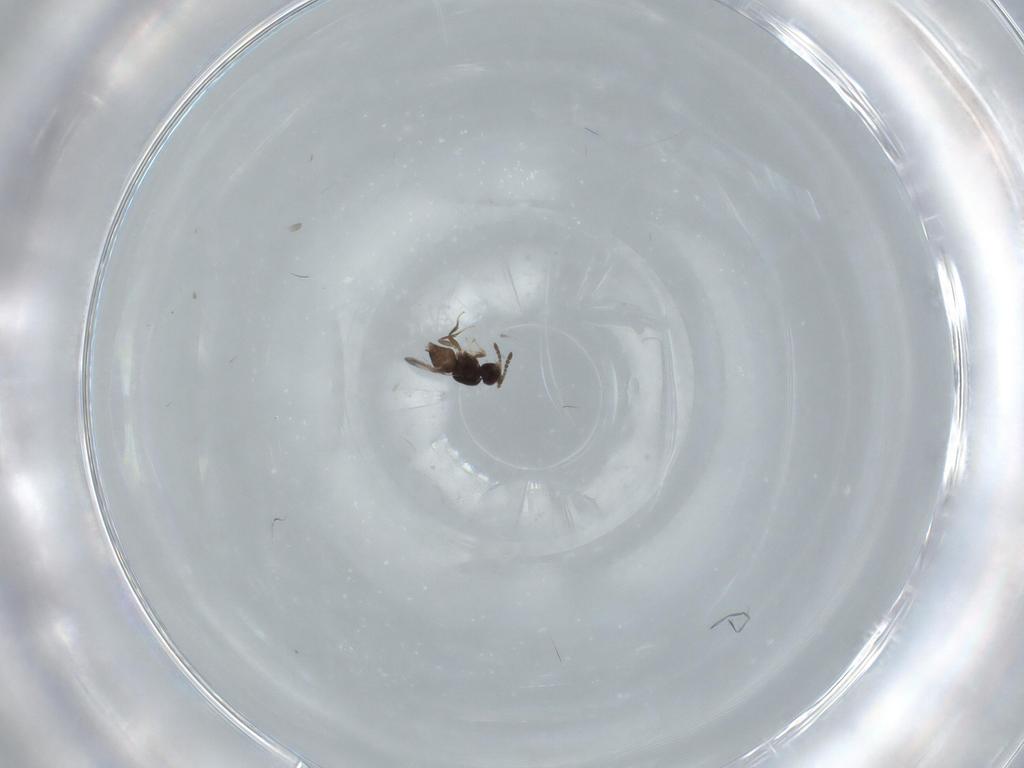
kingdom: Animalia
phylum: Arthropoda
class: Insecta
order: Hymenoptera
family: Ceraphronidae
